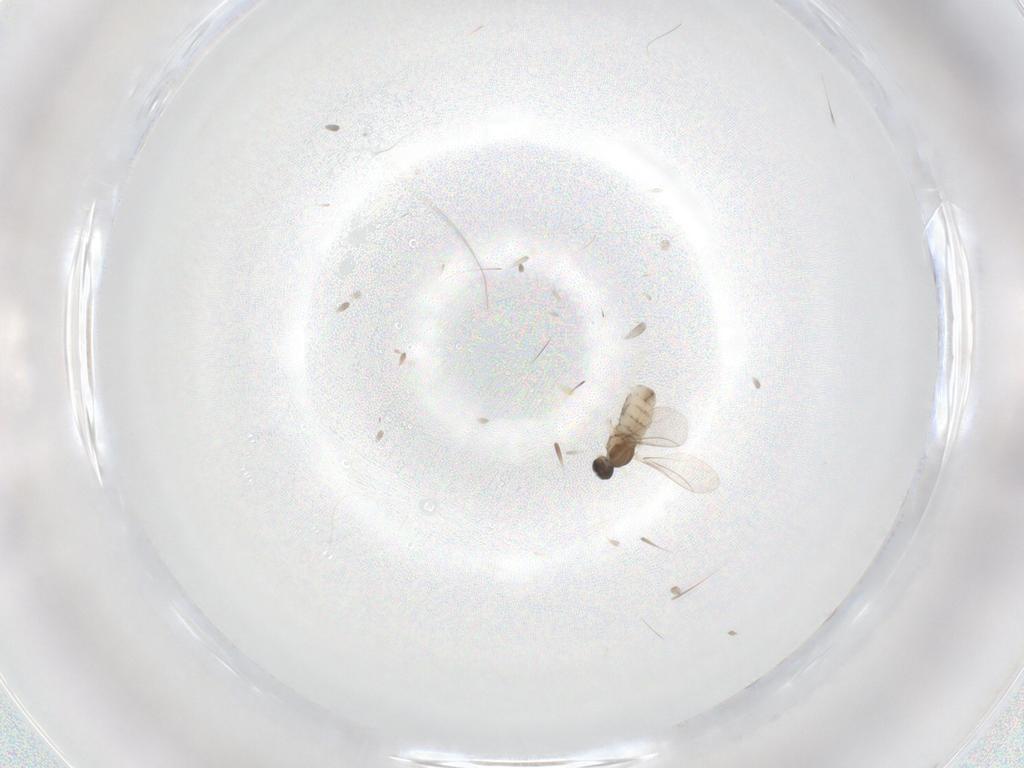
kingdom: Animalia
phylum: Arthropoda
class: Insecta
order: Diptera
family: Cecidomyiidae
